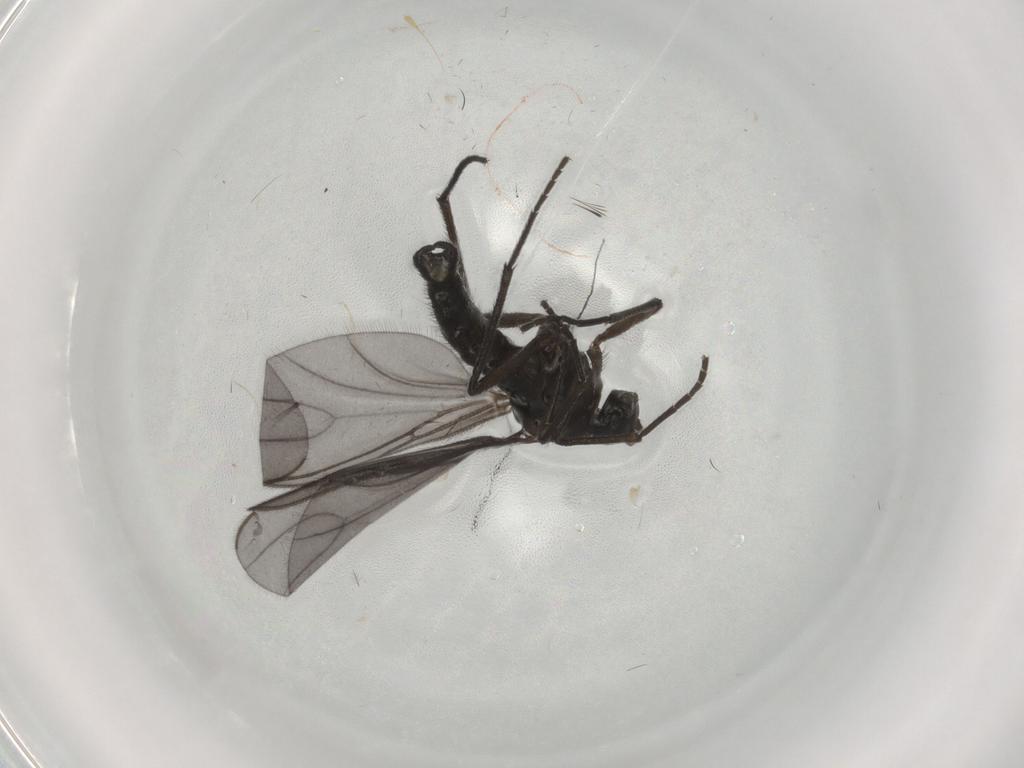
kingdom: Animalia
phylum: Arthropoda
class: Insecta
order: Diptera
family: Sciaridae
